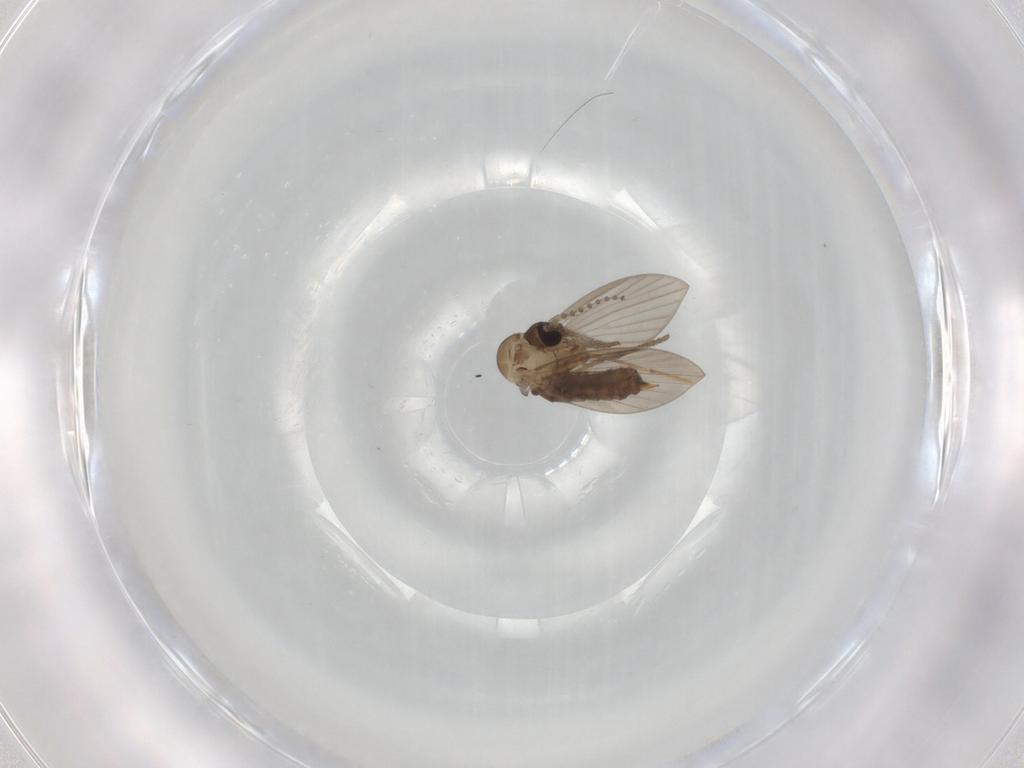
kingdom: Animalia
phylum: Arthropoda
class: Insecta
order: Diptera
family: Psychodidae
